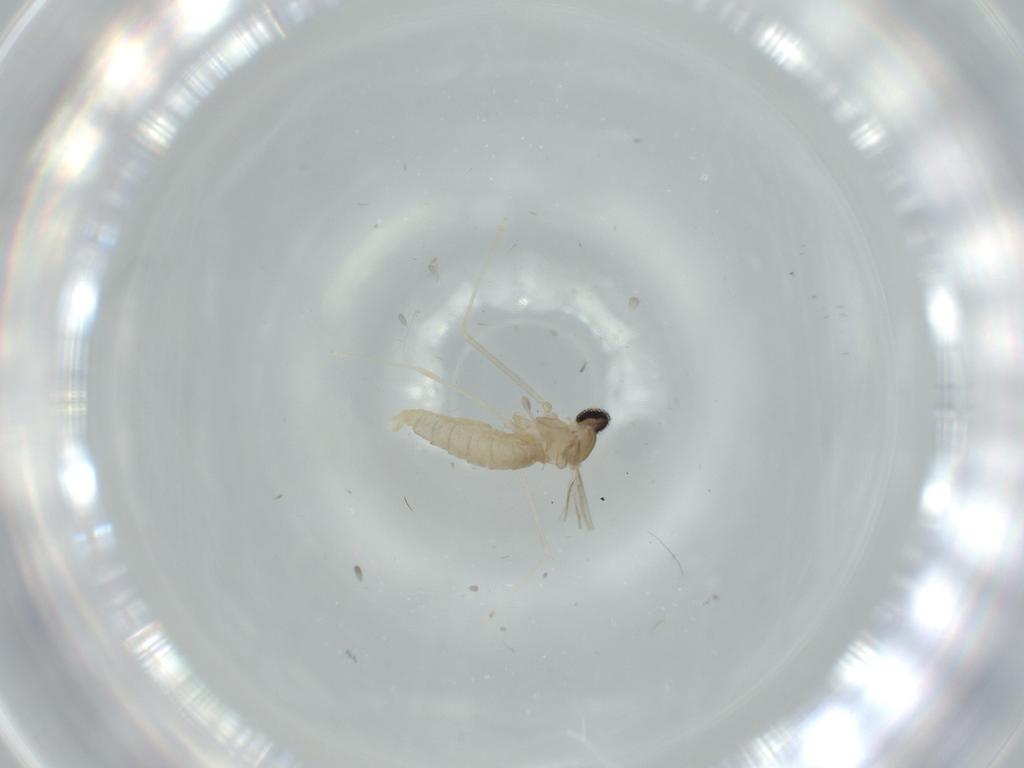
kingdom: Animalia
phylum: Arthropoda
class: Insecta
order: Diptera
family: Cecidomyiidae
